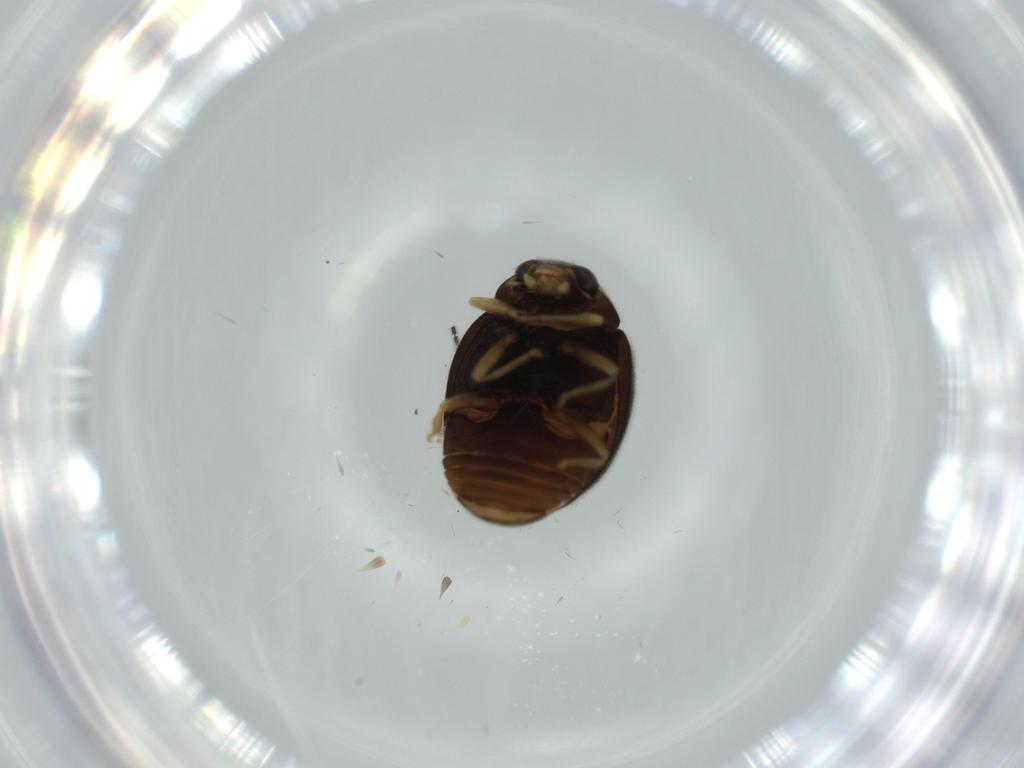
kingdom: Animalia
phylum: Arthropoda
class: Insecta
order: Coleoptera
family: Coccinellidae
